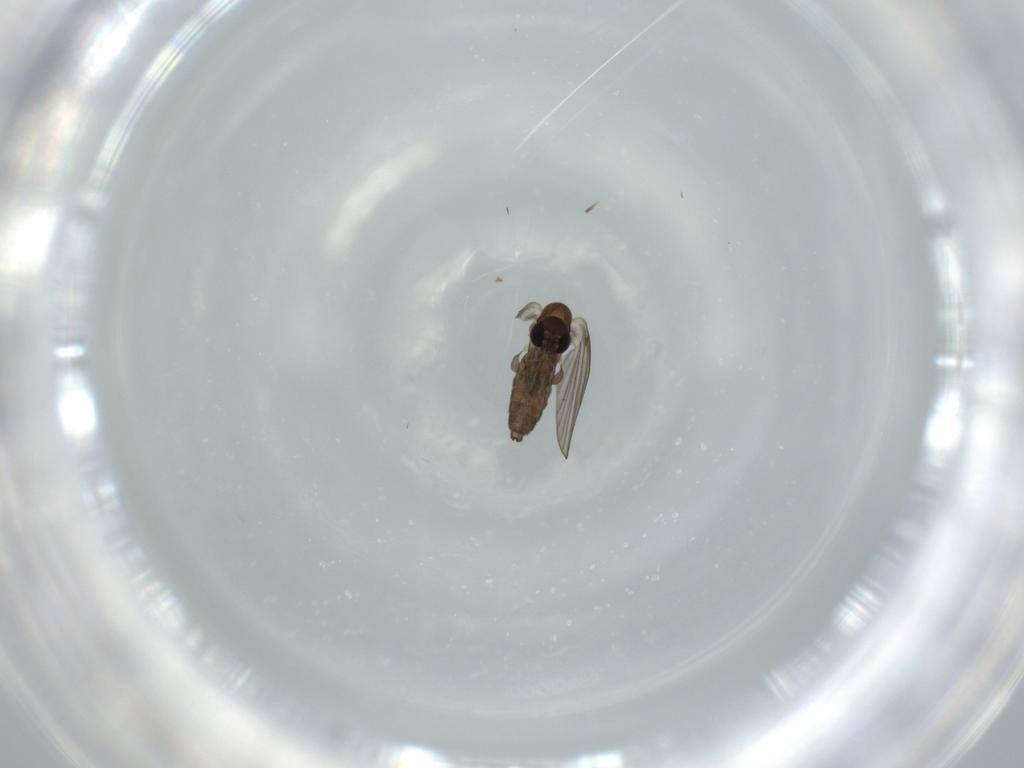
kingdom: Animalia
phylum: Arthropoda
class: Insecta
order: Diptera
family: Psychodidae
